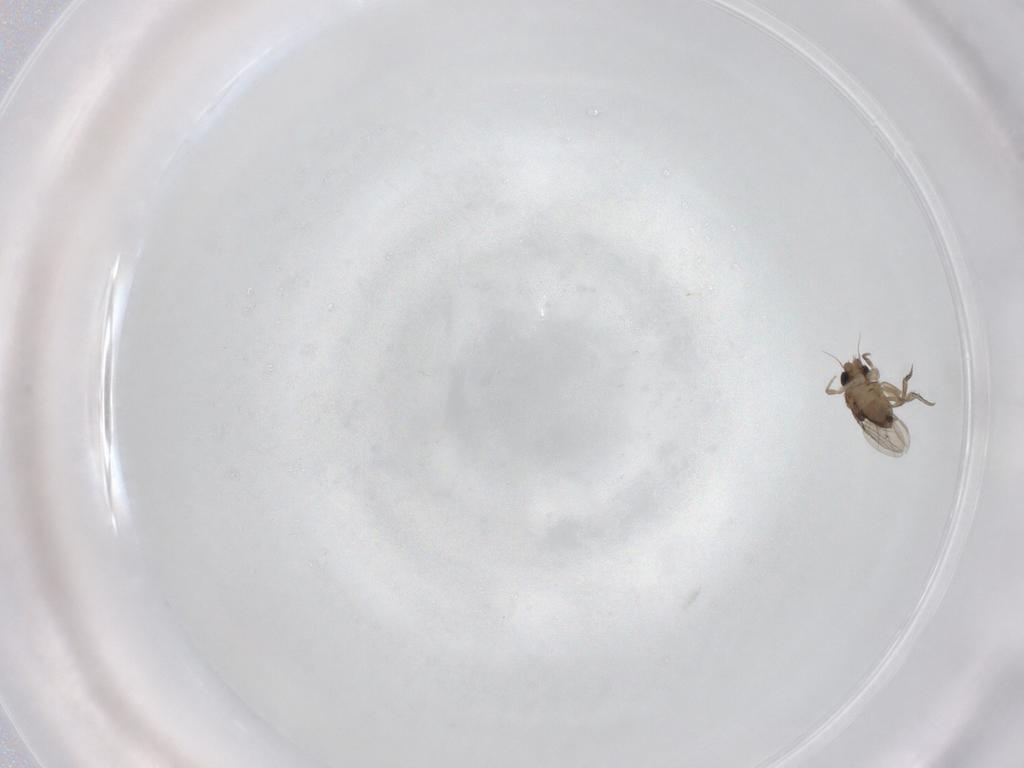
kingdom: Animalia
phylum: Arthropoda
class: Insecta
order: Diptera
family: Phoridae
